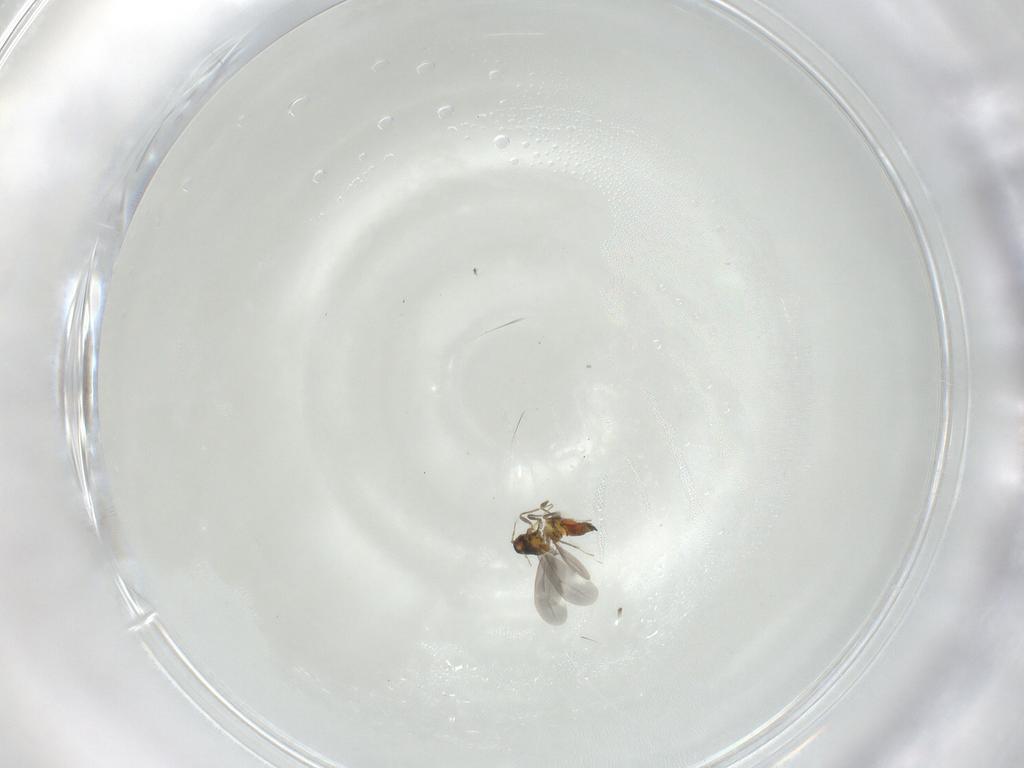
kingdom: Animalia
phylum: Arthropoda
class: Insecta
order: Hemiptera
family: Aleyrodidae
